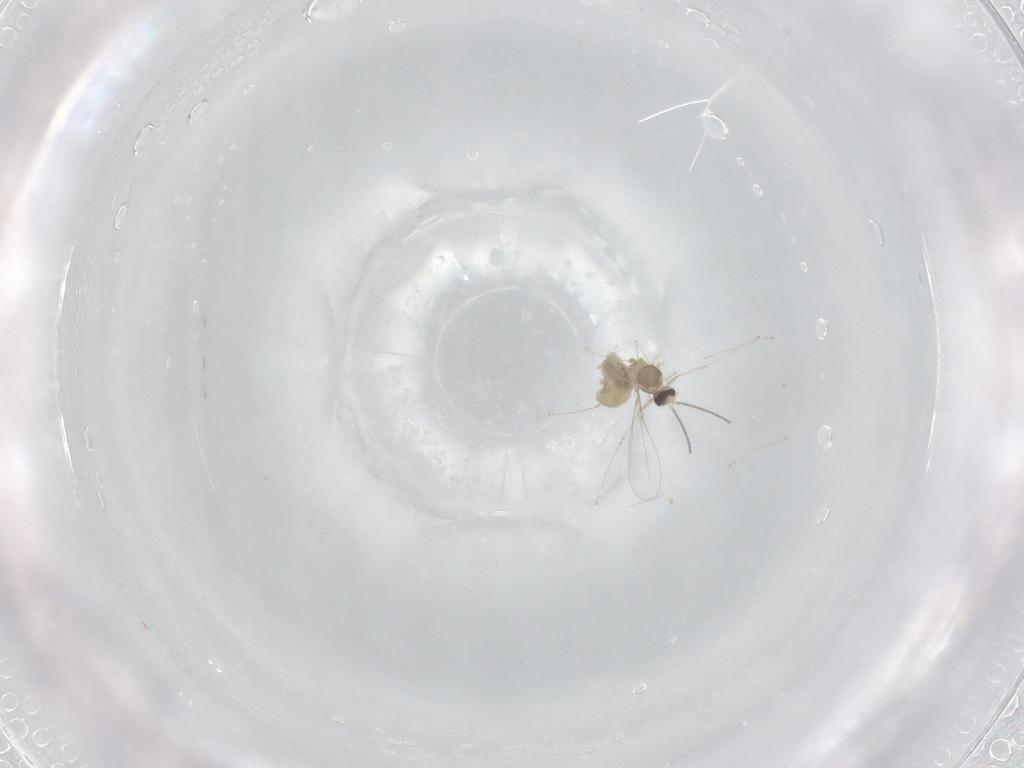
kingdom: Animalia
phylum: Arthropoda
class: Insecta
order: Diptera
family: Cecidomyiidae
